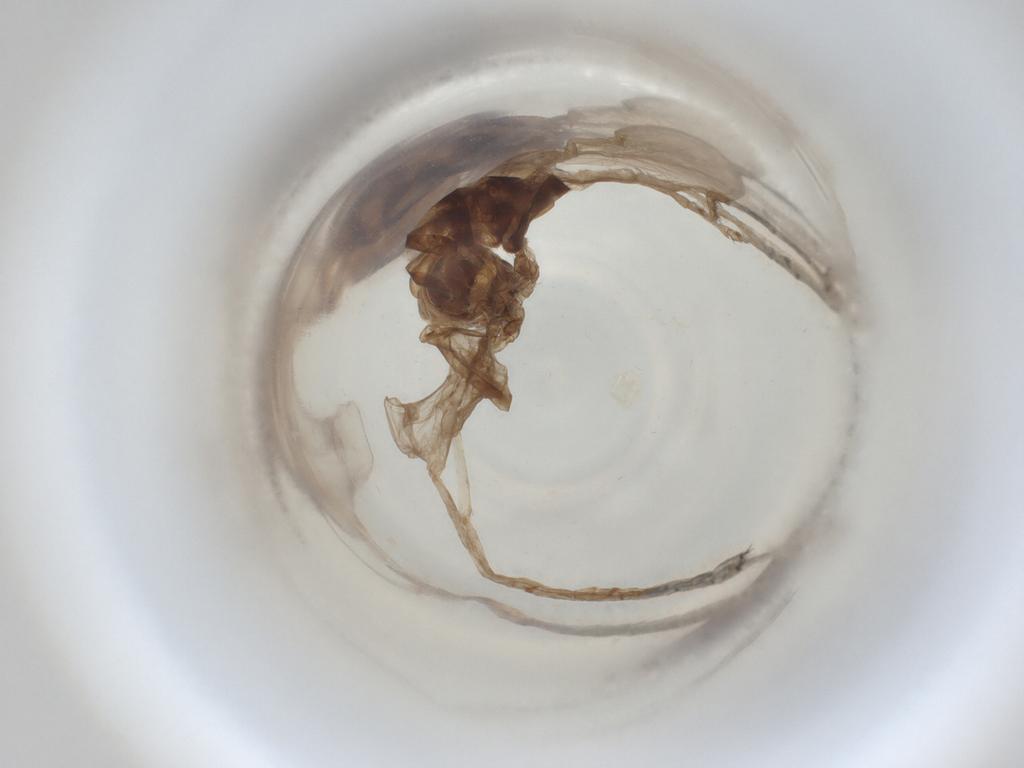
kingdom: Animalia
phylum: Arthropoda
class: Insecta
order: Diptera
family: Cecidomyiidae
